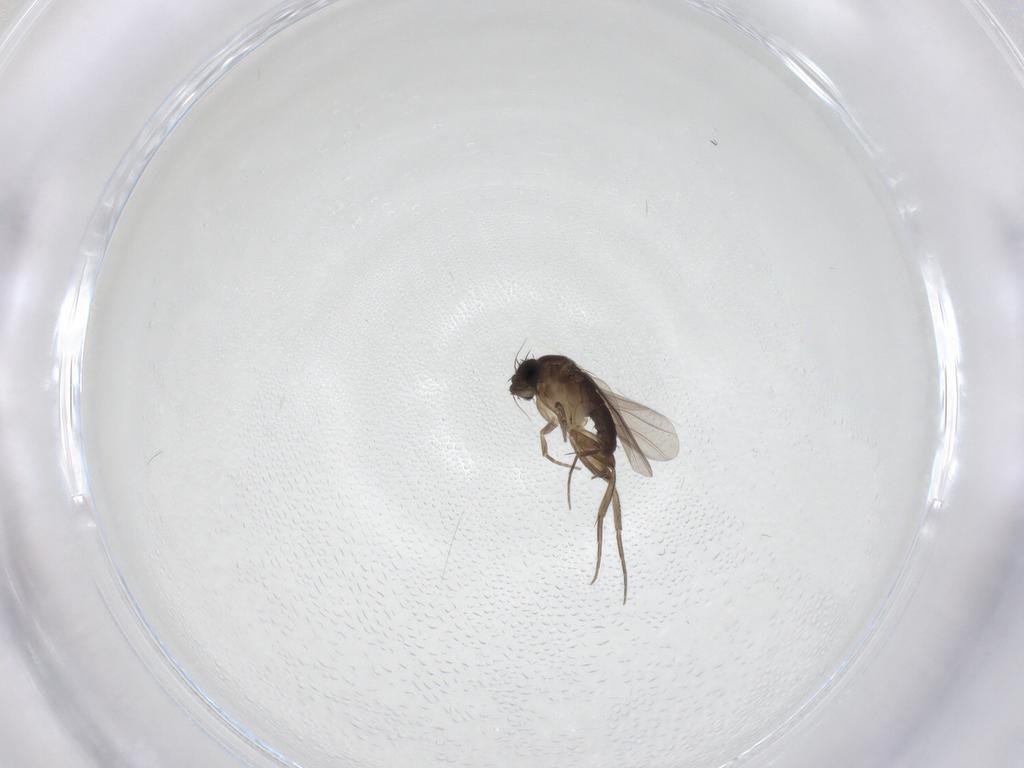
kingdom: Animalia
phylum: Arthropoda
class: Insecta
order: Diptera
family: Phoridae
